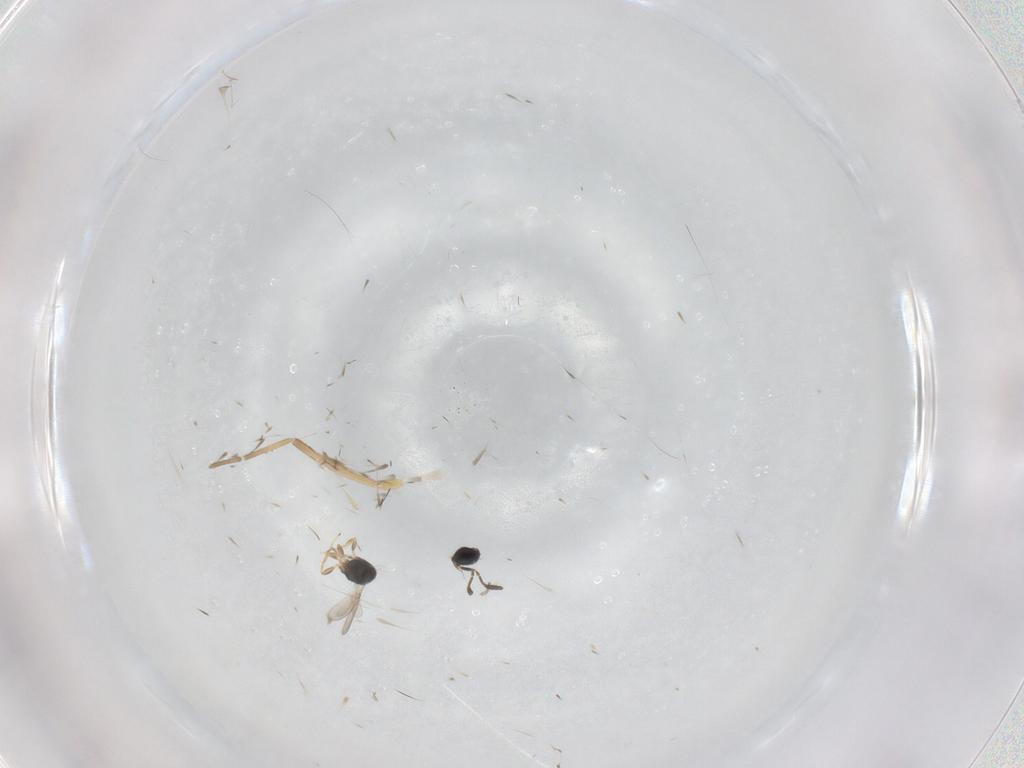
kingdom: Animalia
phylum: Arthropoda
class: Insecta
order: Hymenoptera
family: Scelionidae
